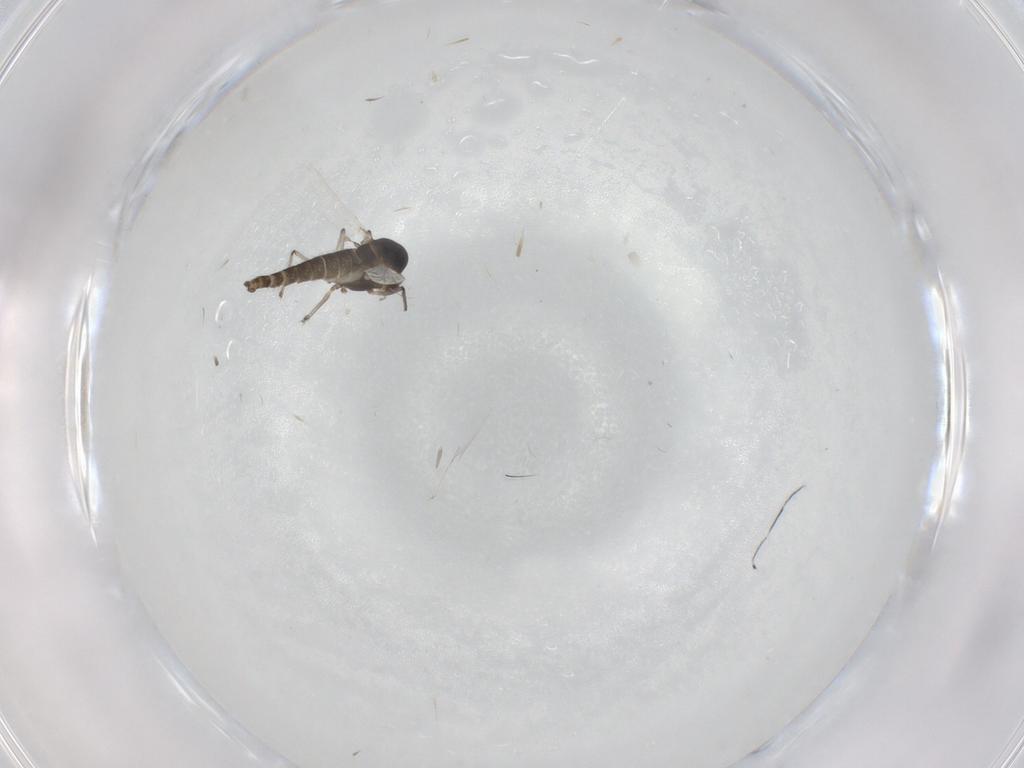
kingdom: Animalia
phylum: Arthropoda
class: Insecta
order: Diptera
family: Chironomidae
